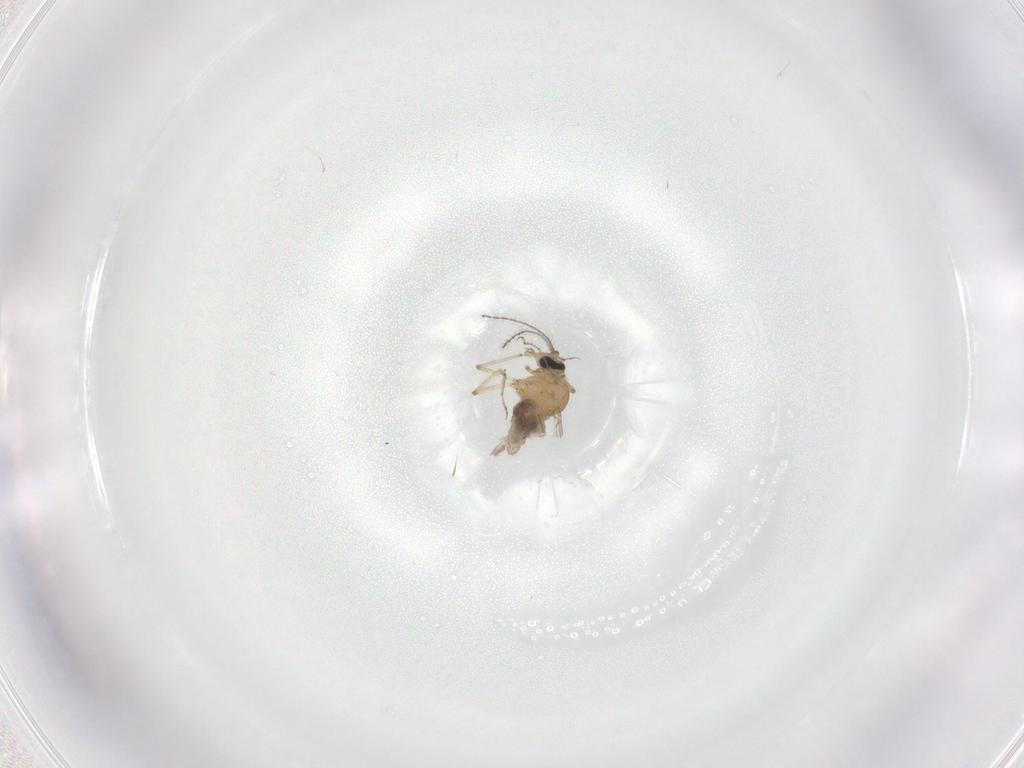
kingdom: Animalia
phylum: Arthropoda
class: Insecta
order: Diptera
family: Ceratopogonidae
